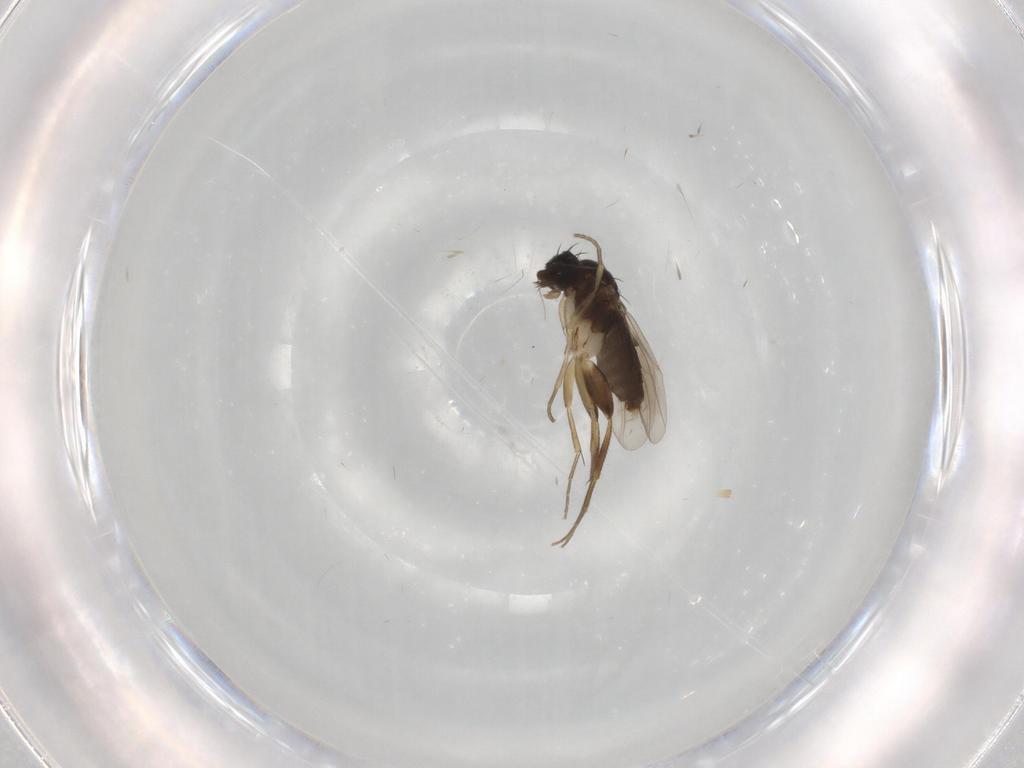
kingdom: Animalia
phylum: Arthropoda
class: Insecta
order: Diptera
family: Phoridae
